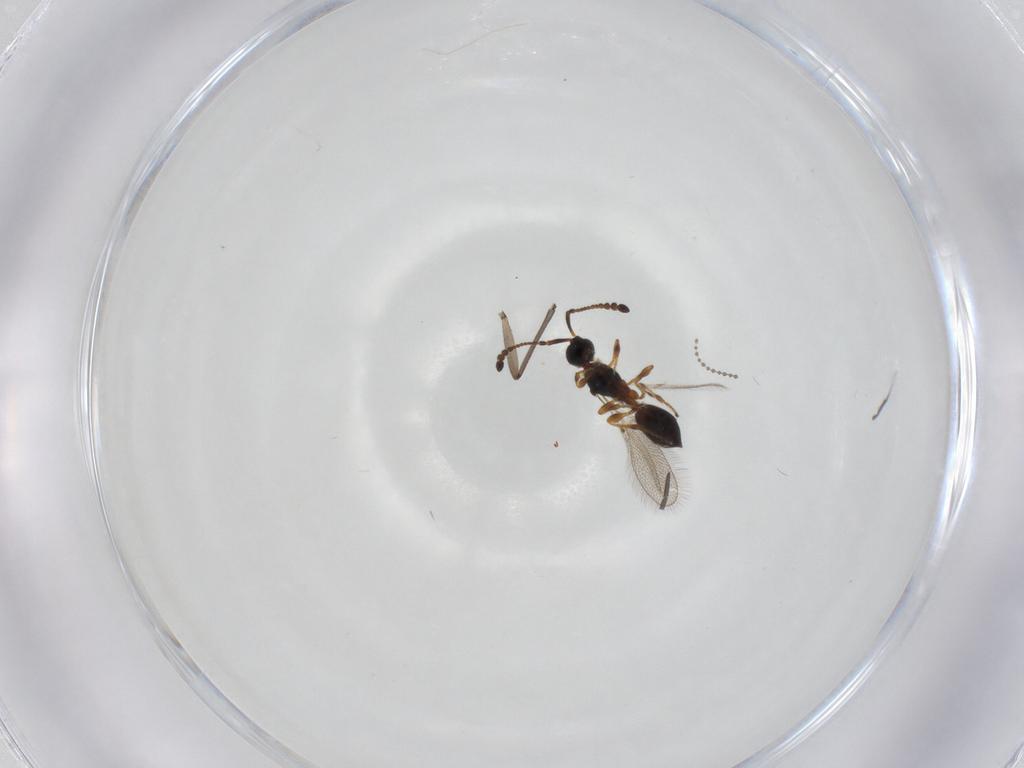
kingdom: Animalia
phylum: Arthropoda
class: Insecta
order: Hymenoptera
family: Diapriidae
